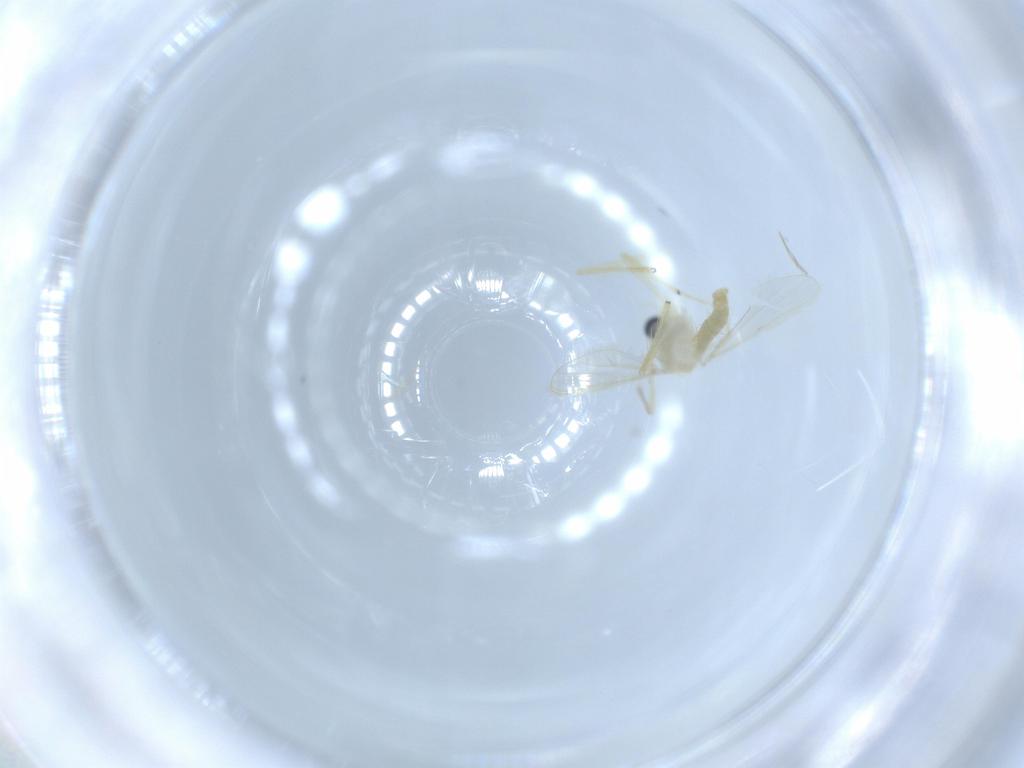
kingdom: Animalia
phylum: Arthropoda
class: Insecta
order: Diptera
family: Chironomidae
